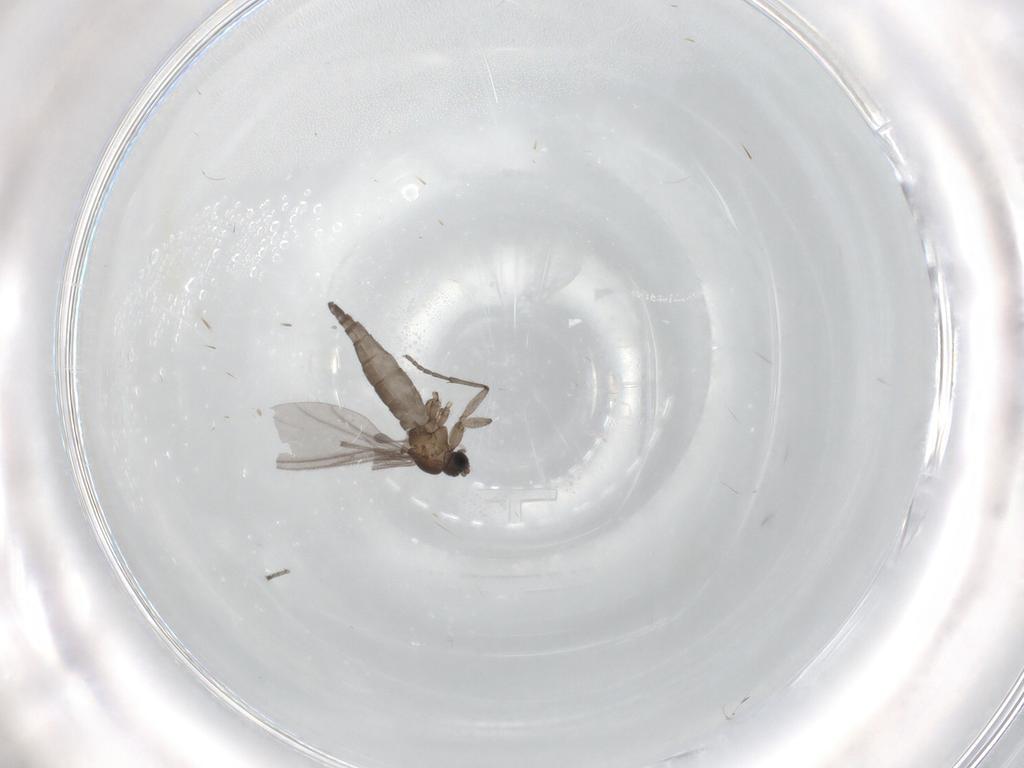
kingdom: Animalia
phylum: Arthropoda
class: Insecta
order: Diptera
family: Sciaridae
